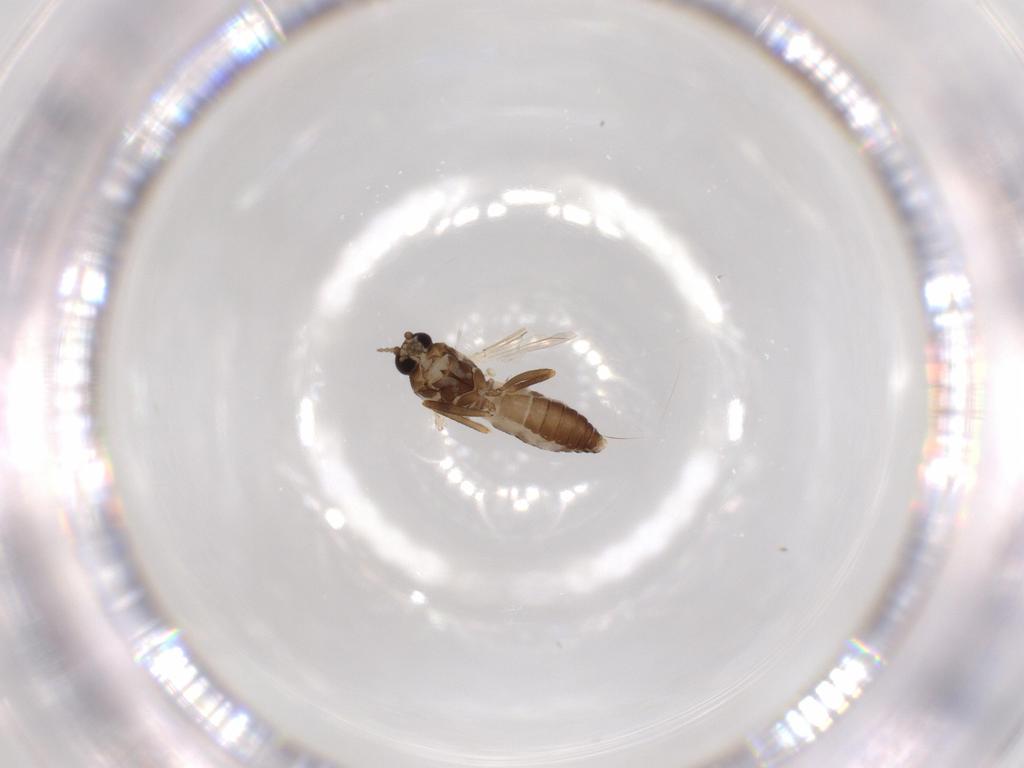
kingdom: Animalia
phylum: Arthropoda
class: Insecta
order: Diptera
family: Ceratopogonidae
